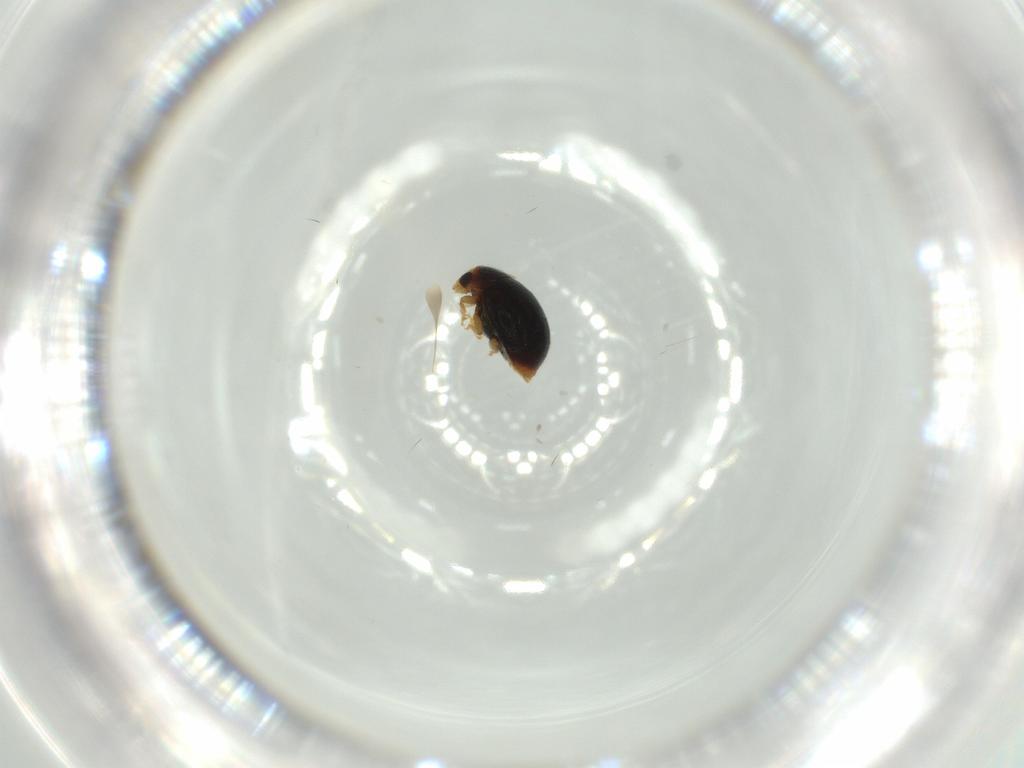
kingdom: Animalia
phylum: Arthropoda
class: Insecta
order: Coleoptera
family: Coccinellidae
